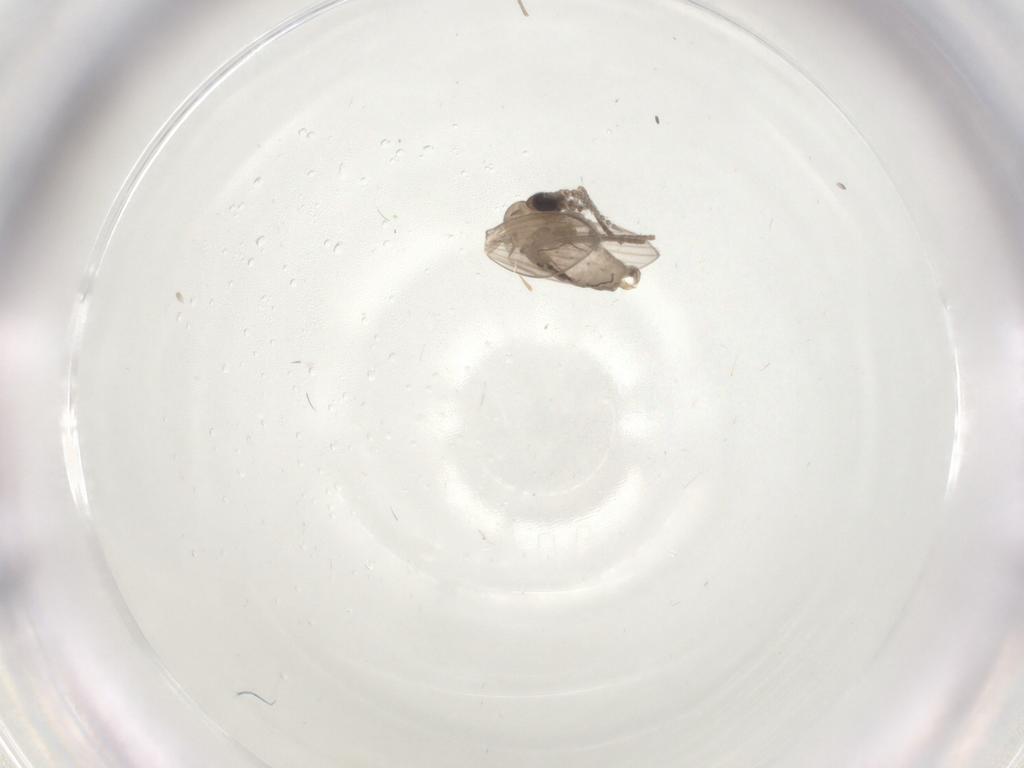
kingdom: Animalia
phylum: Arthropoda
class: Insecta
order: Diptera
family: Psychodidae
